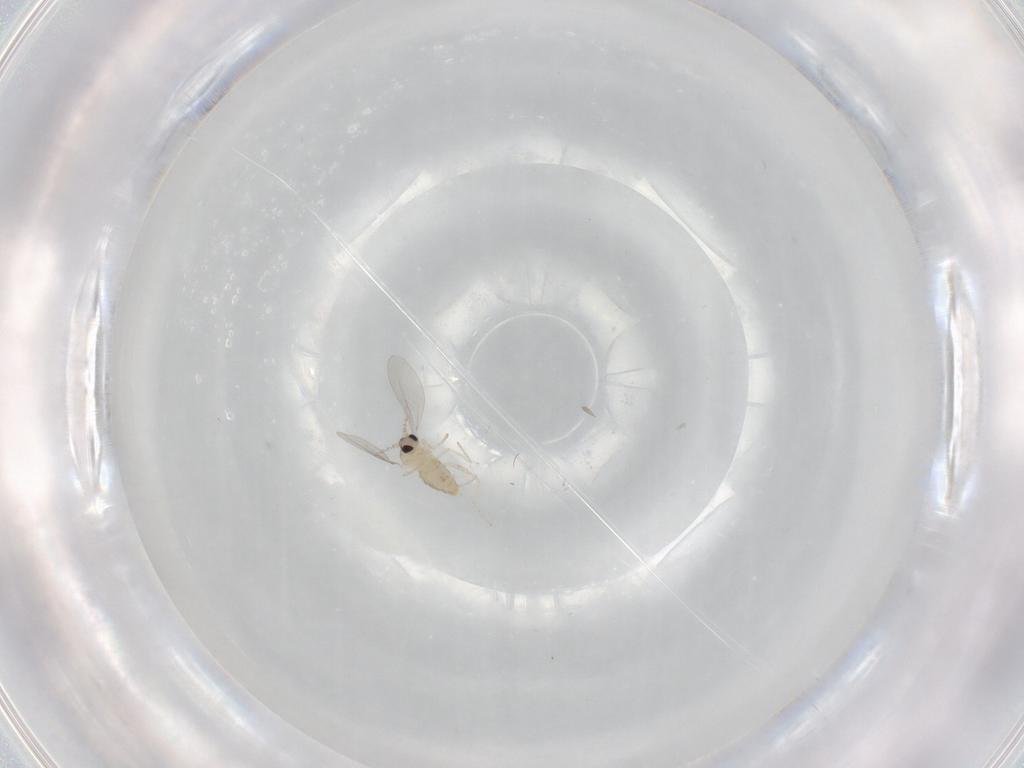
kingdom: Animalia
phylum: Arthropoda
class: Insecta
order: Diptera
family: Cecidomyiidae
